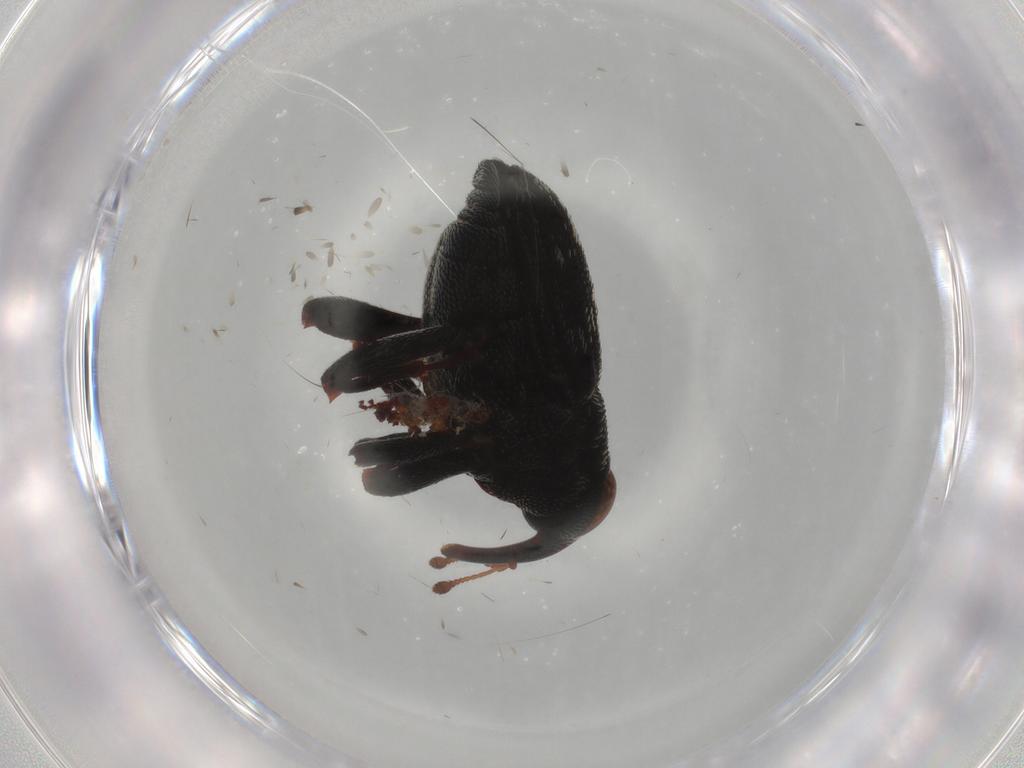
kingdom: Animalia
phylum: Arthropoda
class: Insecta
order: Coleoptera
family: Curculionidae
